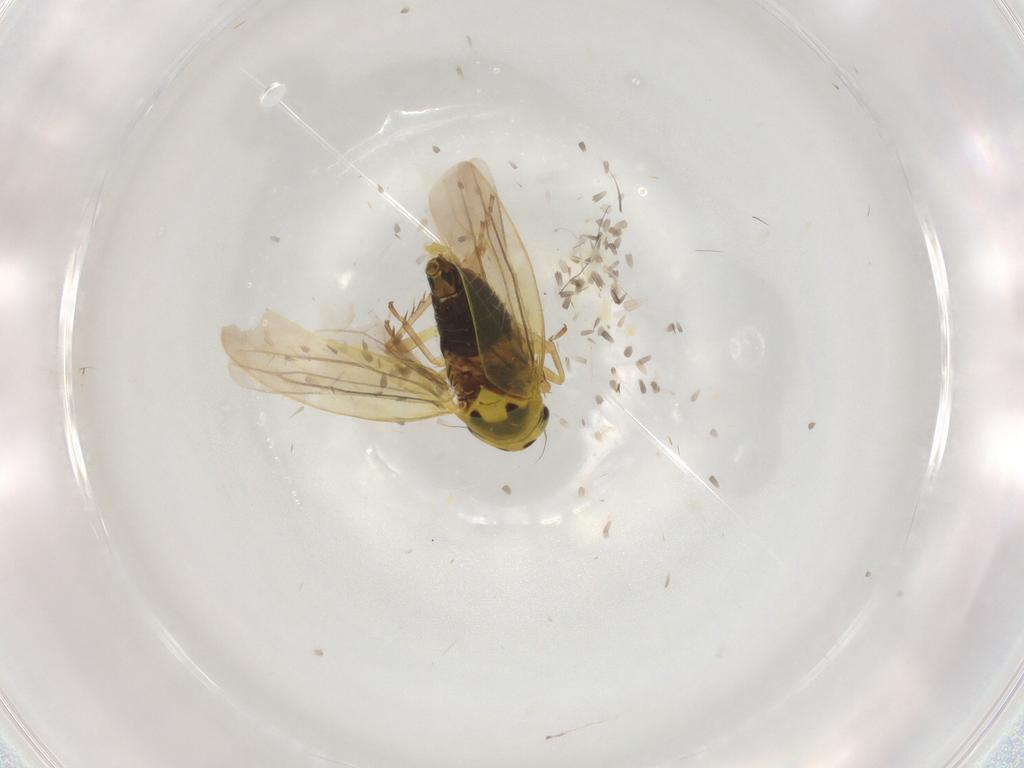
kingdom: Animalia
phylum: Arthropoda
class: Insecta
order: Hemiptera
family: Cicadellidae
